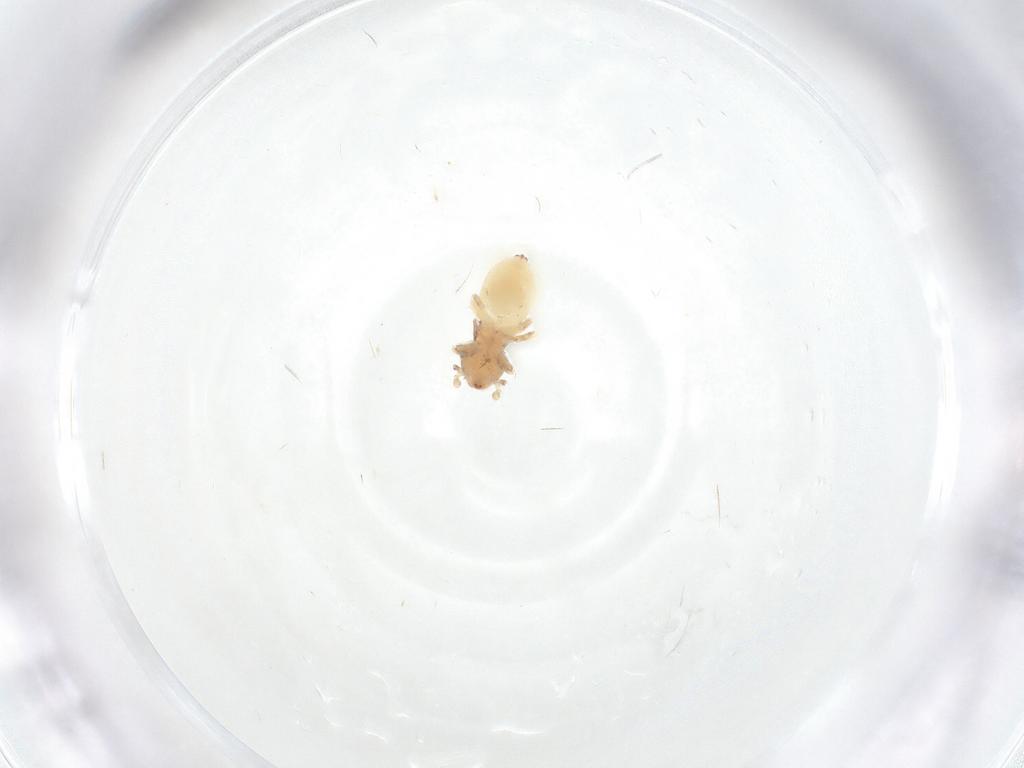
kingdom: Animalia
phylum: Arthropoda
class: Insecta
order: Psocodea
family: Lepidopsocidae
